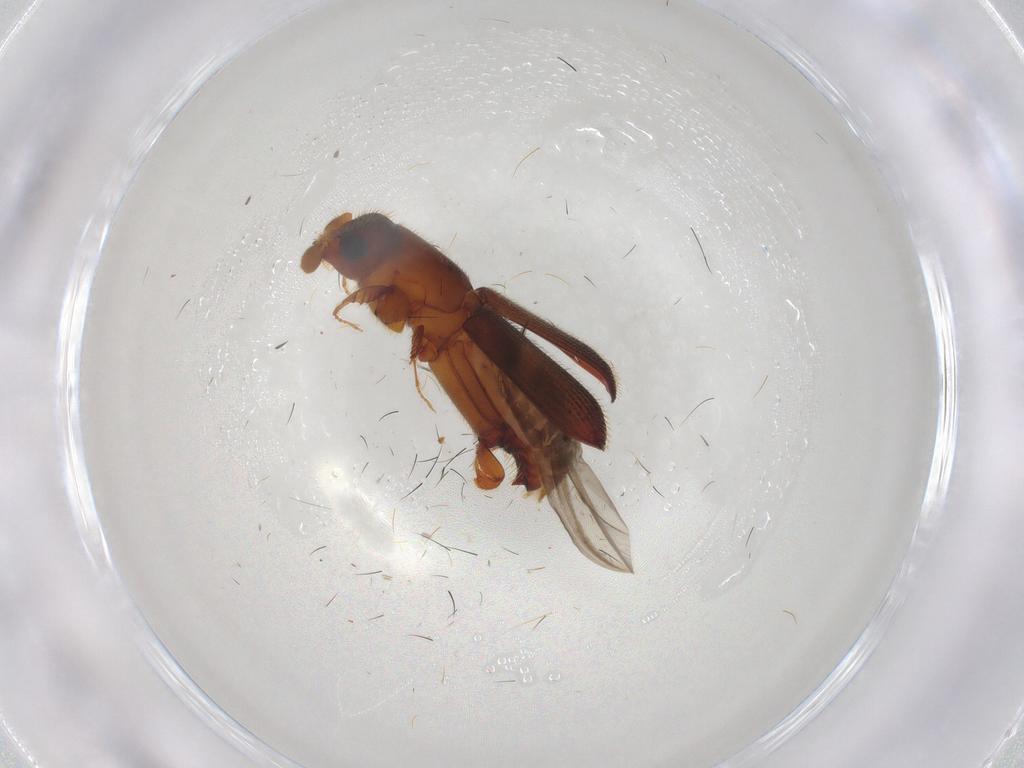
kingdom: Animalia
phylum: Arthropoda
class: Insecta
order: Coleoptera
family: Curculionidae
